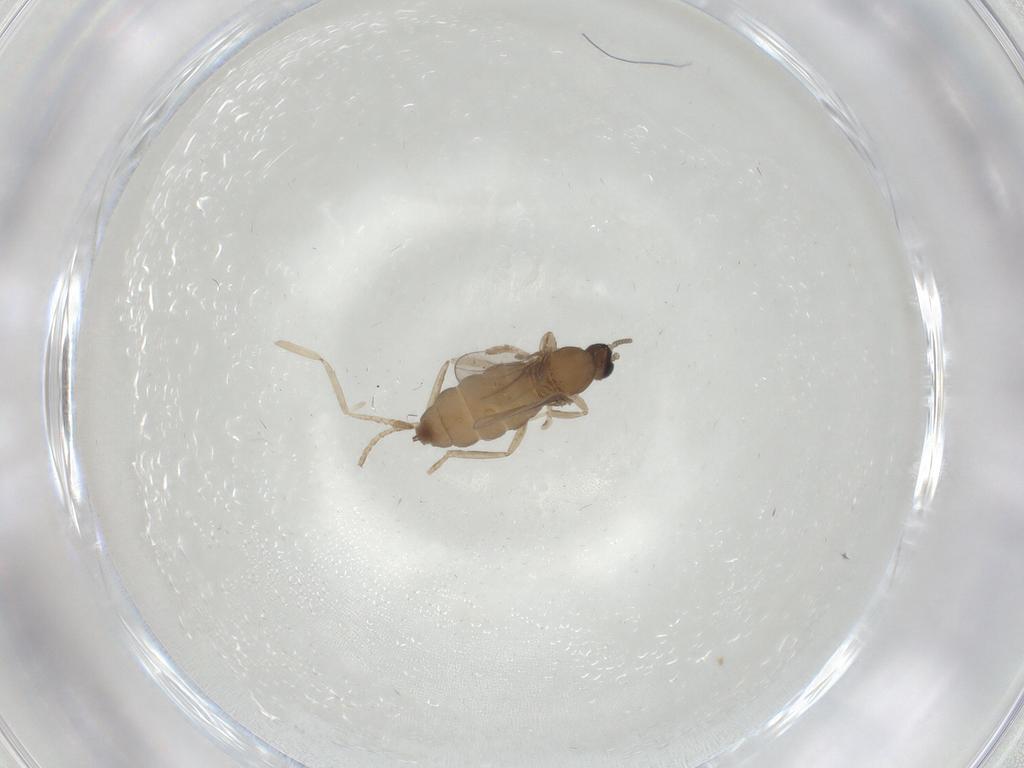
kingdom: Animalia
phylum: Arthropoda
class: Insecta
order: Diptera
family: Cecidomyiidae
